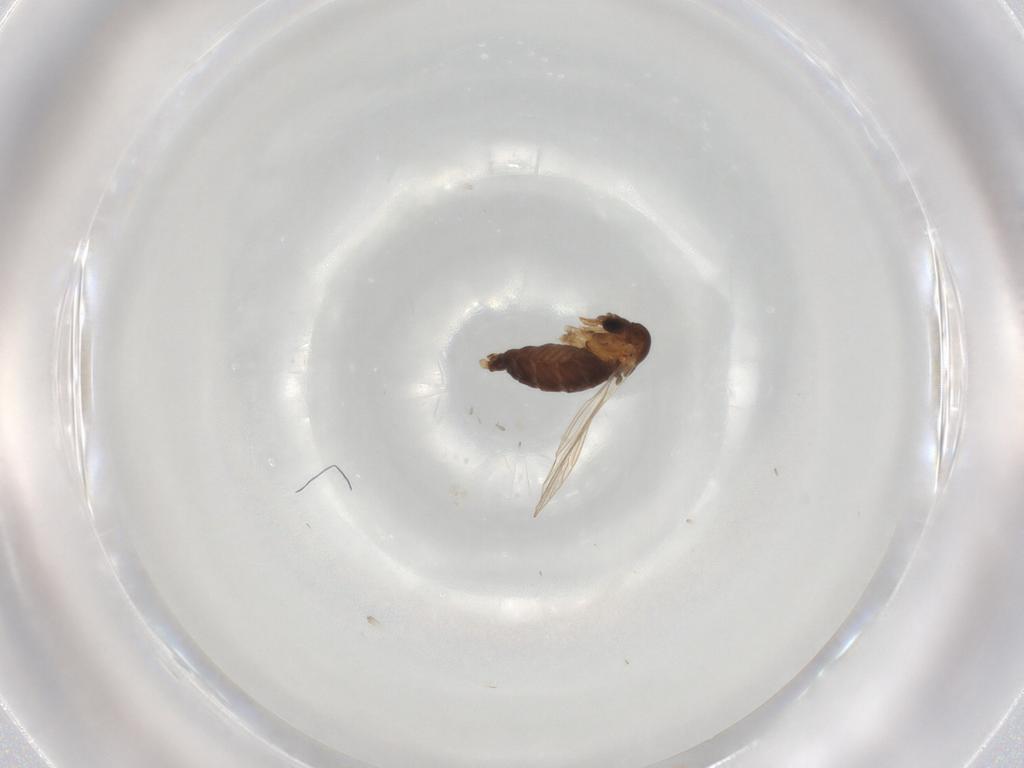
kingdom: Animalia
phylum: Arthropoda
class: Insecta
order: Diptera
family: Psychodidae
